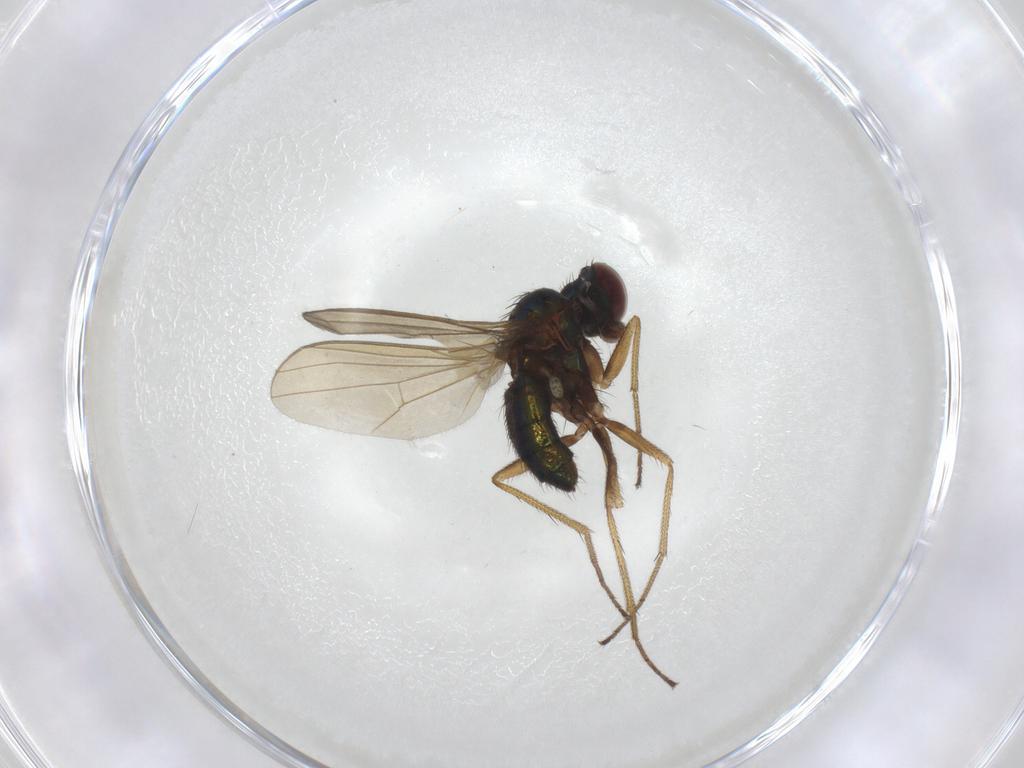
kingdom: Animalia
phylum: Arthropoda
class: Insecta
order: Diptera
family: Dolichopodidae
